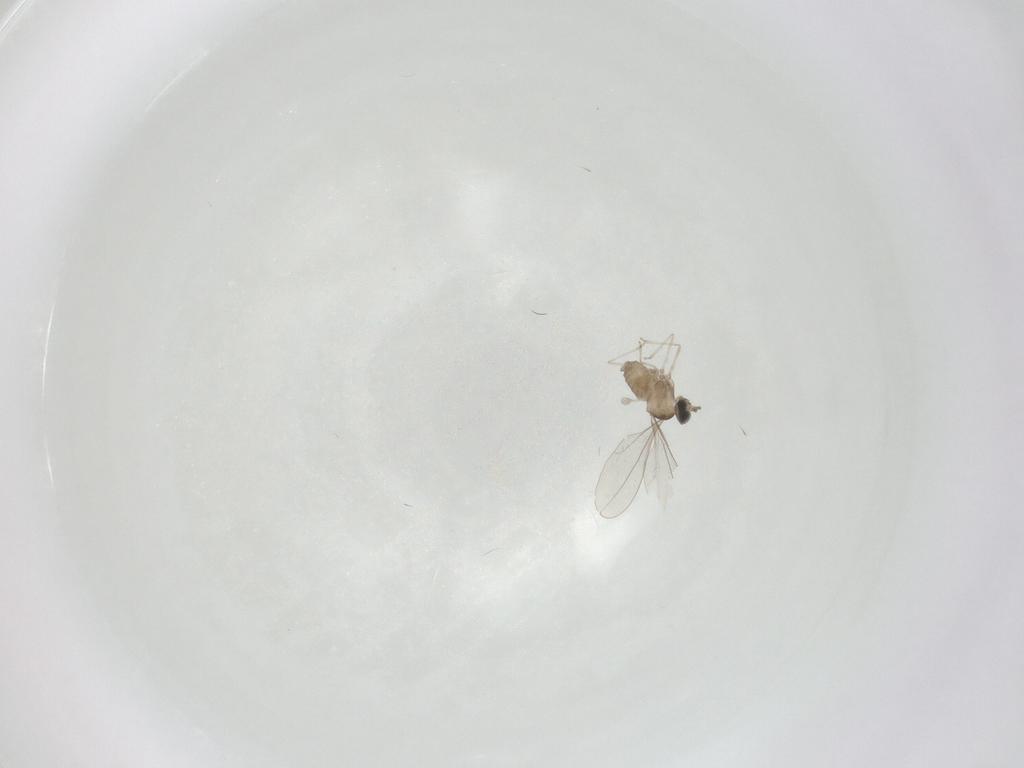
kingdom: Animalia
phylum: Arthropoda
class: Insecta
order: Diptera
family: Cecidomyiidae
